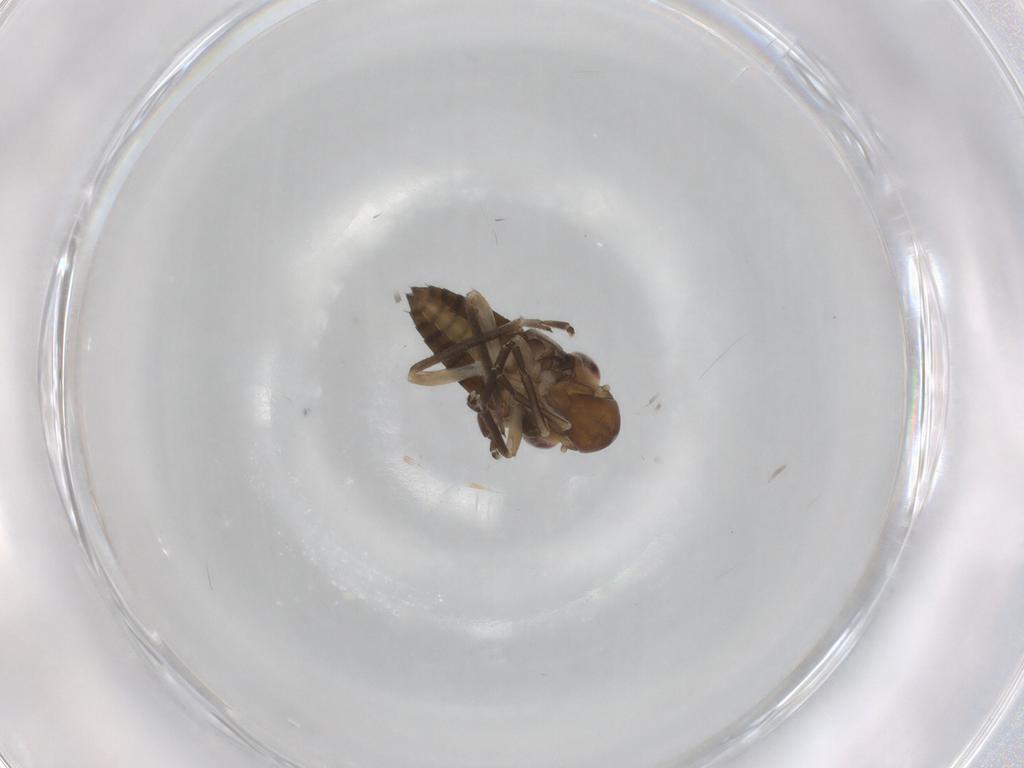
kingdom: Animalia
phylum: Arthropoda
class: Insecta
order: Hemiptera
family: Cicadellidae
